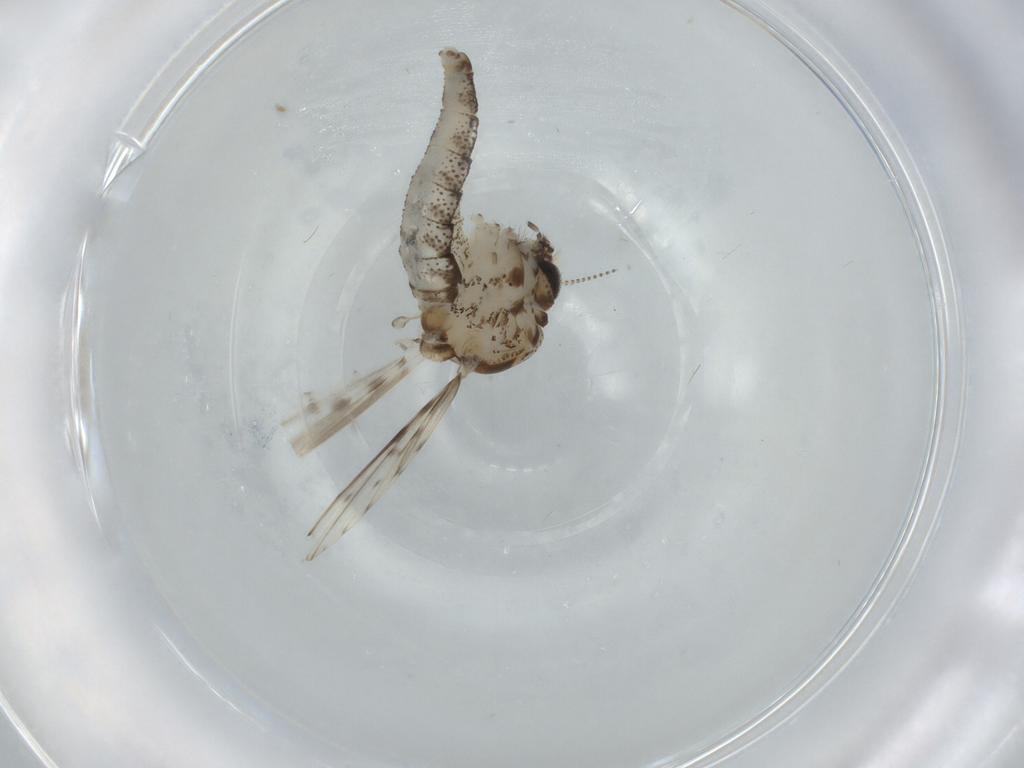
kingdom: Animalia
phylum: Arthropoda
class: Insecta
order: Diptera
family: Sciaridae
